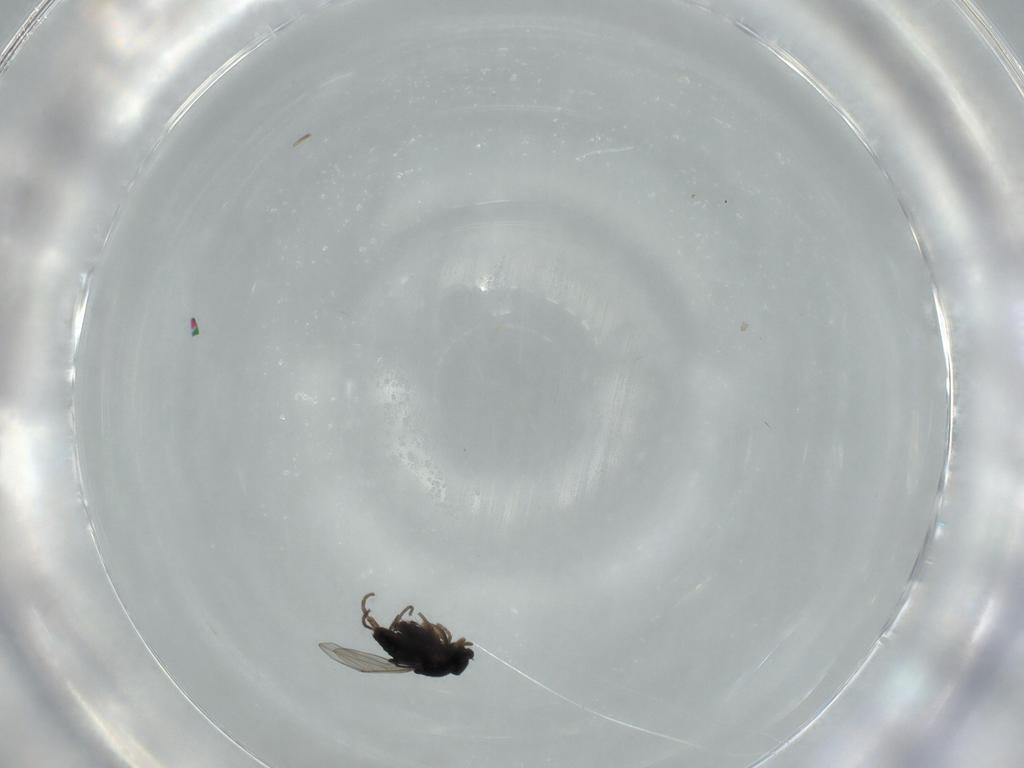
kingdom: Animalia
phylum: Arthropoda
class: Insecta
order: Diptera
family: Phoridae
